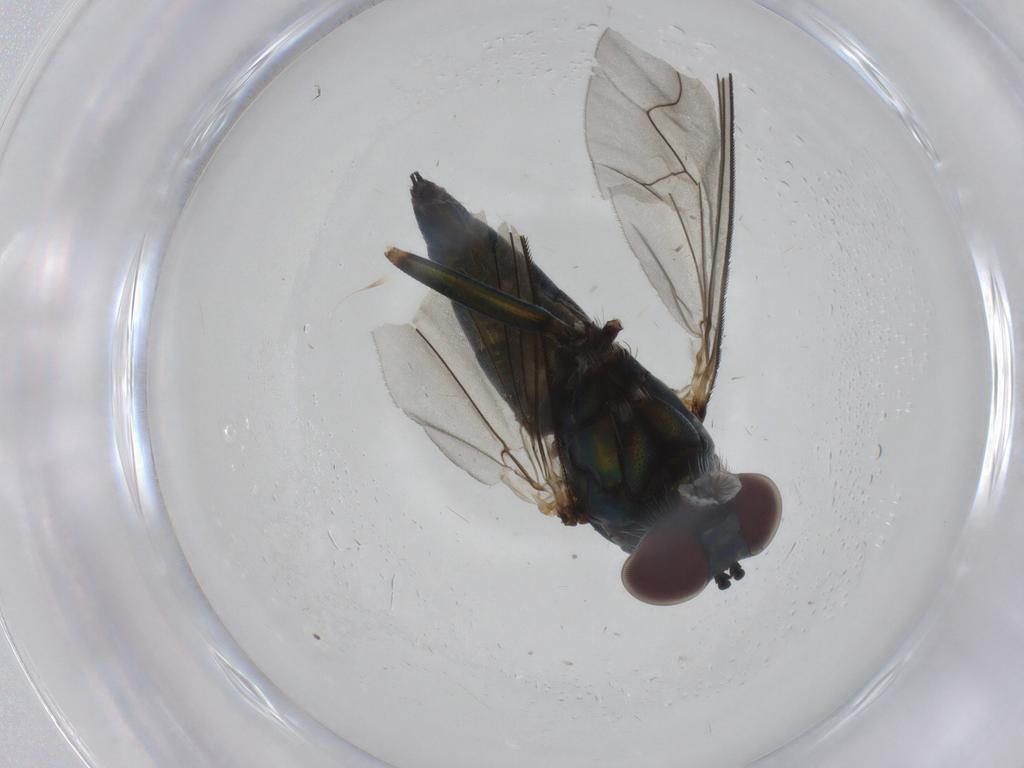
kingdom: Animalia
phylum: Arthropoda
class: Insecta
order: Diptera
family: Dolichopodidae
